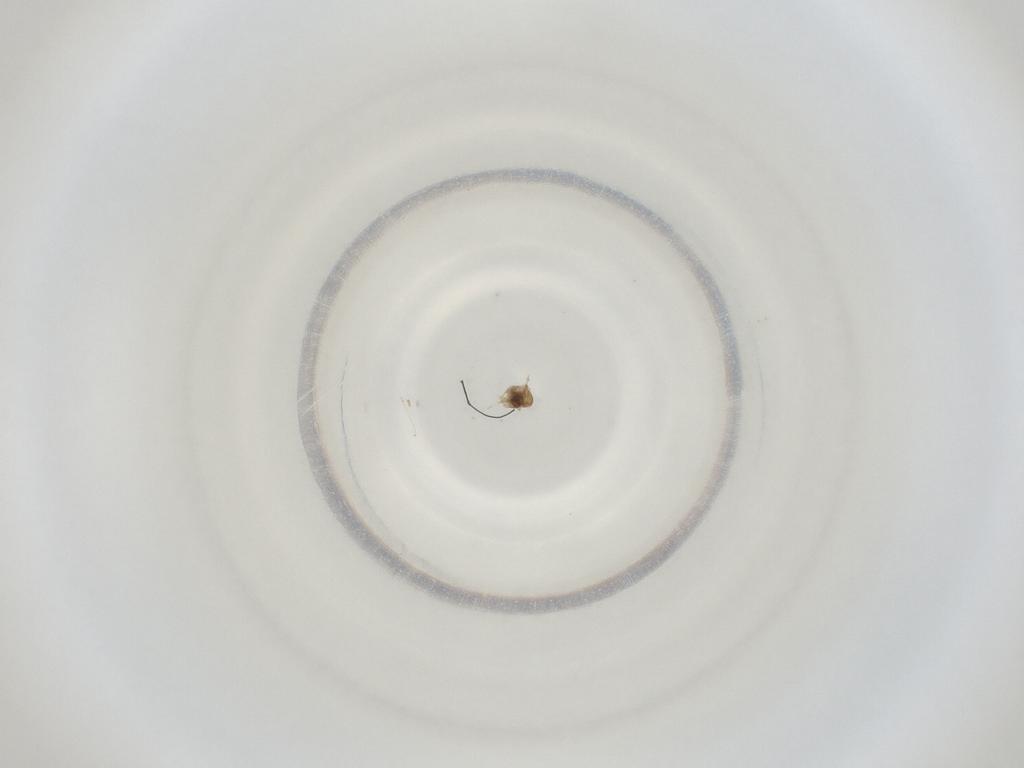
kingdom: Animalia
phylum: Arthropoda
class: Insecta
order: Diptera
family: Cecidomyiidae
